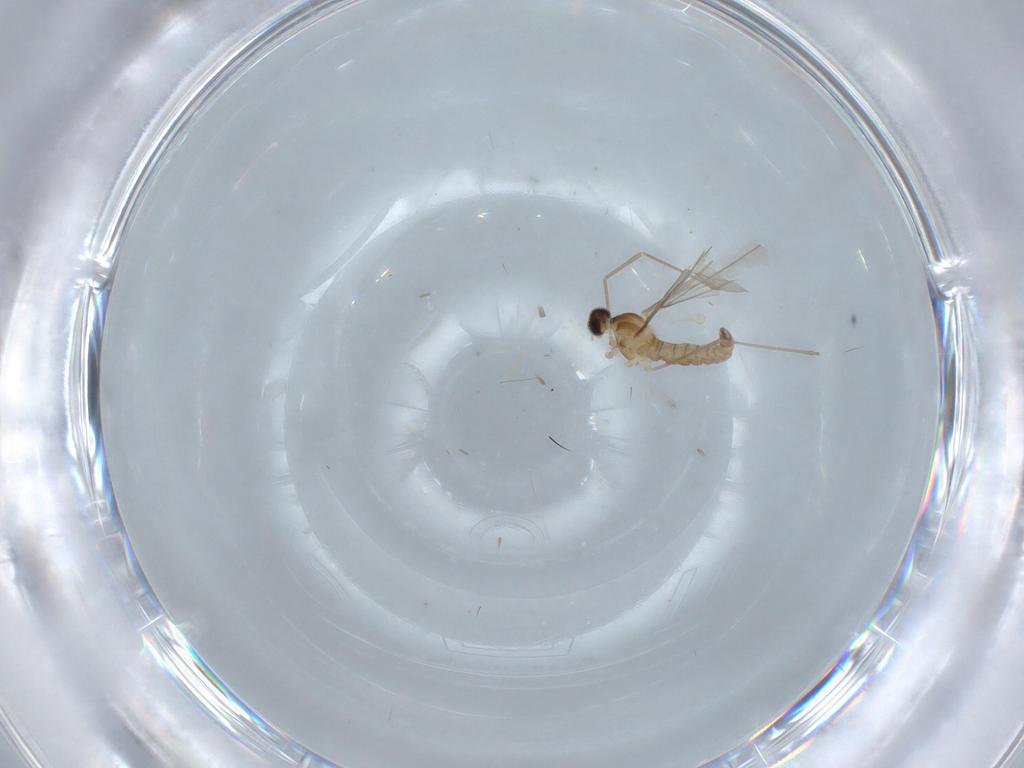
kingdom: Animalia
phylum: Arthropoda
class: Insecta
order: Diptera
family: Cecidomyiidae
